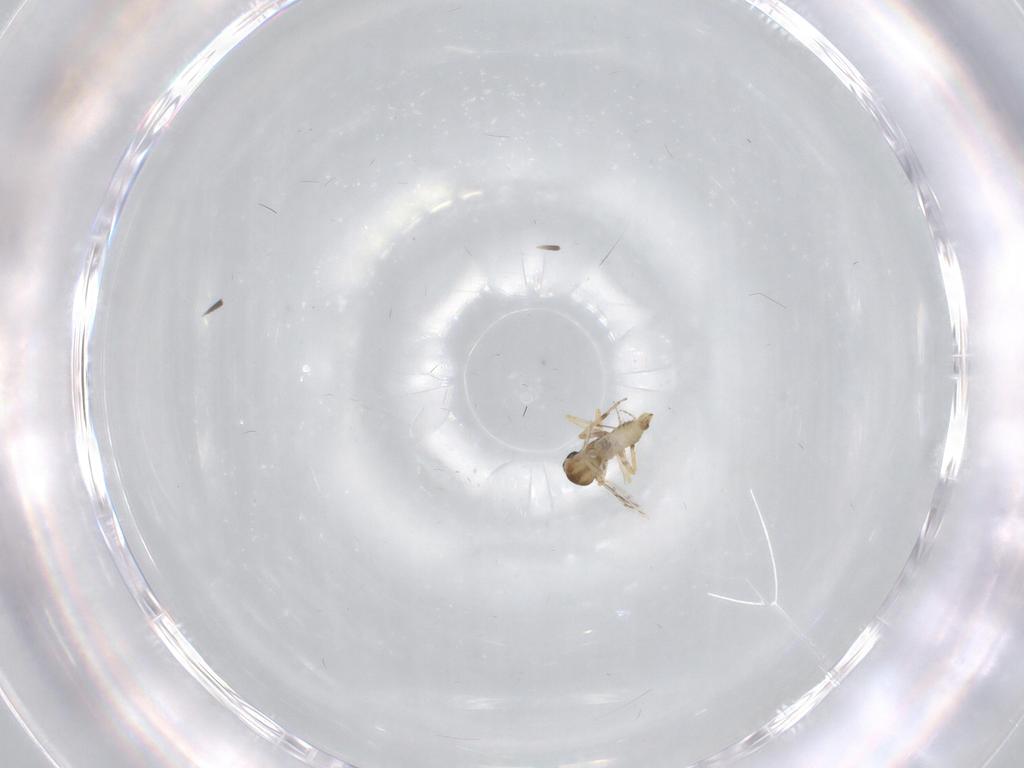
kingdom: Animalia
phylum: Arthropoda
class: Insecta
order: Diptera
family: Ceratopogonidae
